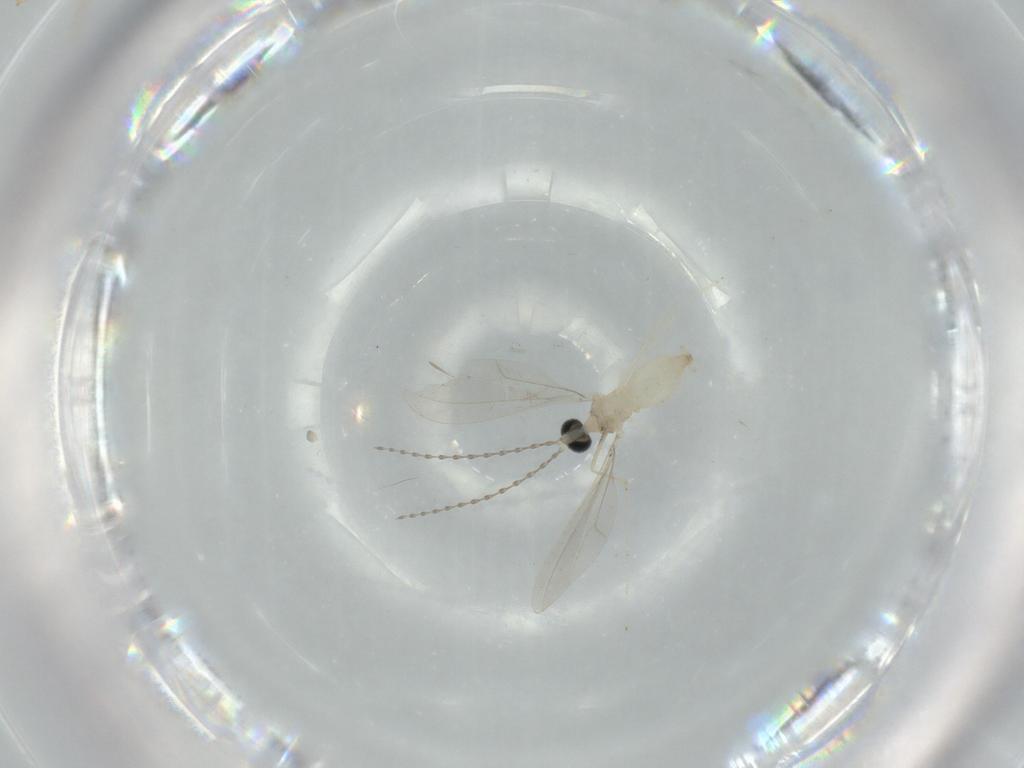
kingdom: Animalia
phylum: Arthropoda
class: Insecta
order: Diptera
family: Cecidomyiidae
